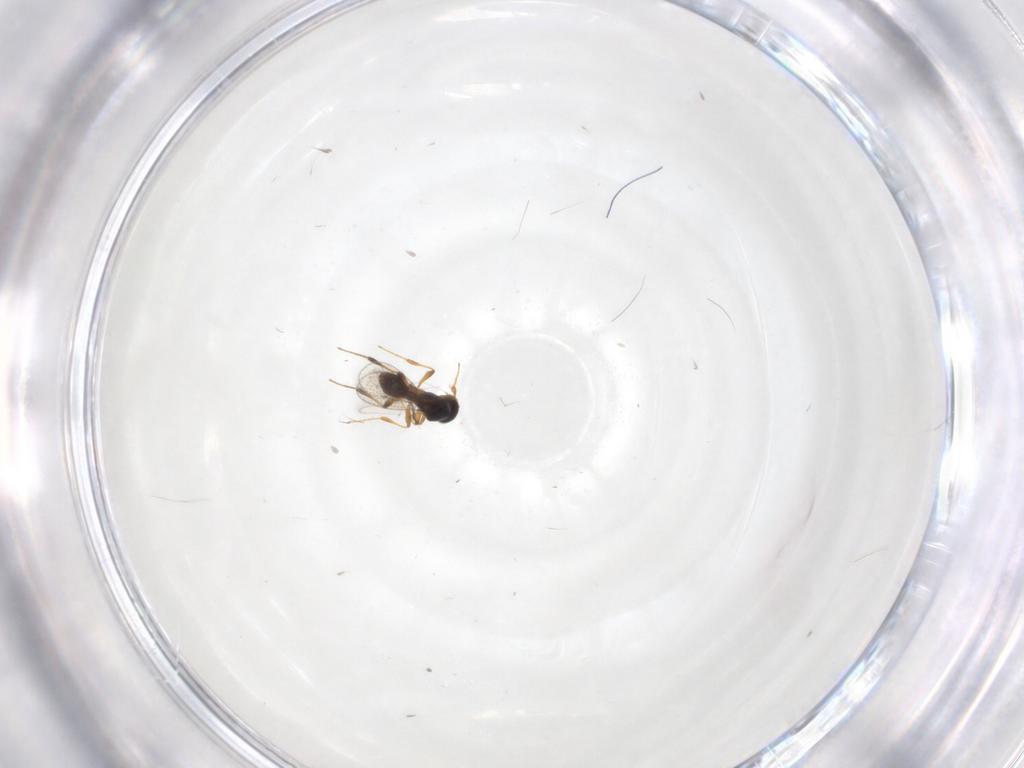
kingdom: Animalia
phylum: Arthropoda
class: Insecta
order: Hymenoptera
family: Platygastridae
